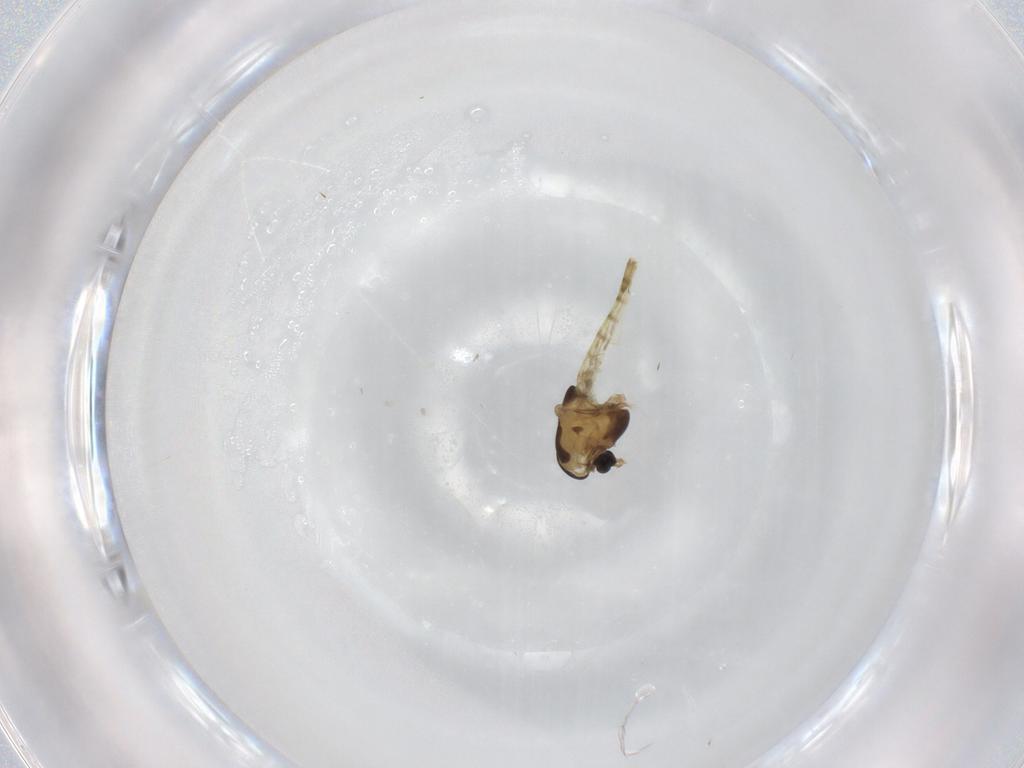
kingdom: Animalia
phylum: Arthropoda
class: Insecta
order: Diptera
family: Chironomidae
